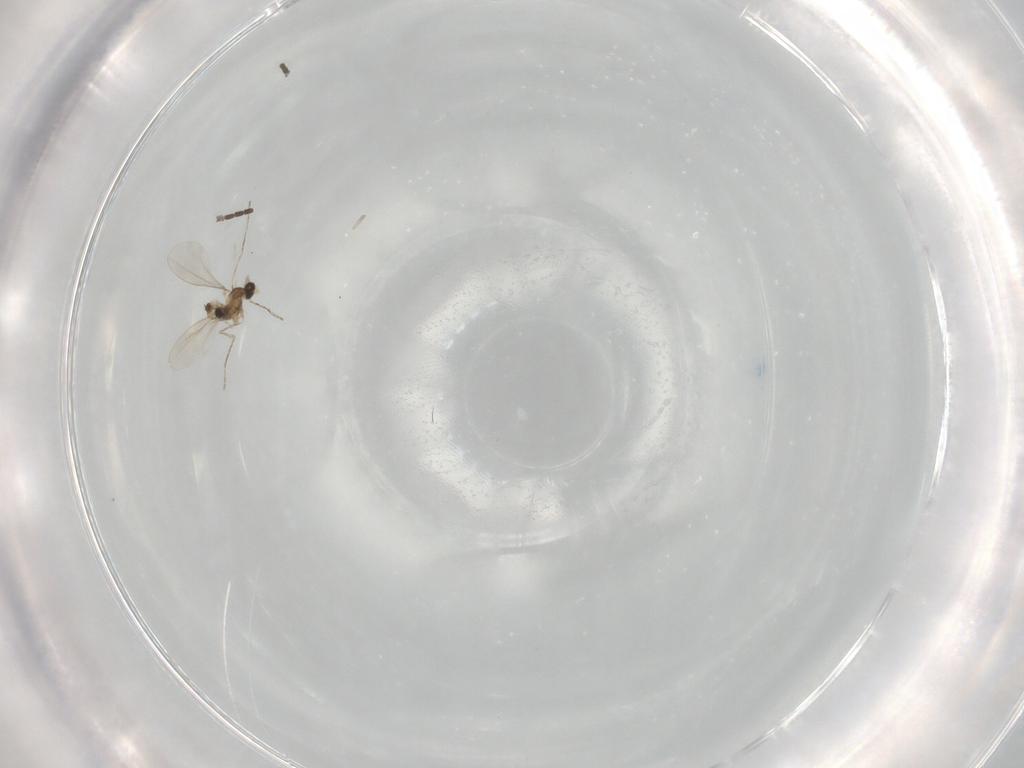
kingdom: Animalia
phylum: Arthropoda
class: Insecta
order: Diptera
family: Cecidomyiidae
